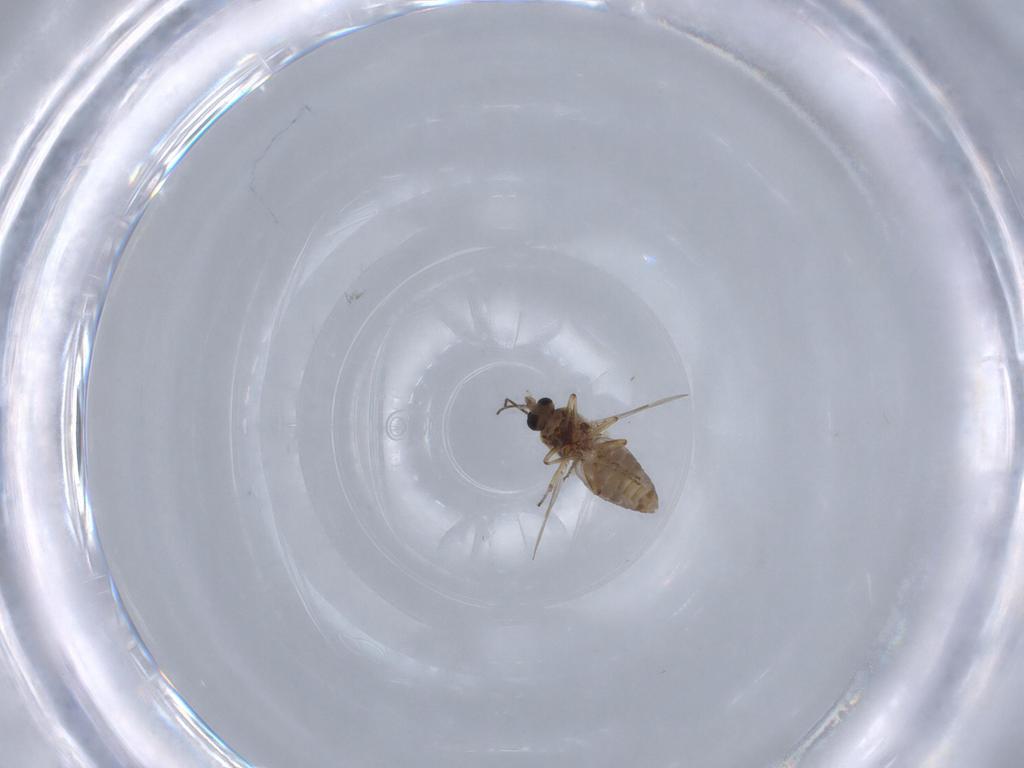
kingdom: Animalia
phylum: Arthropoda
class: Insecta
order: Diptera
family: Ceratopogonidae
